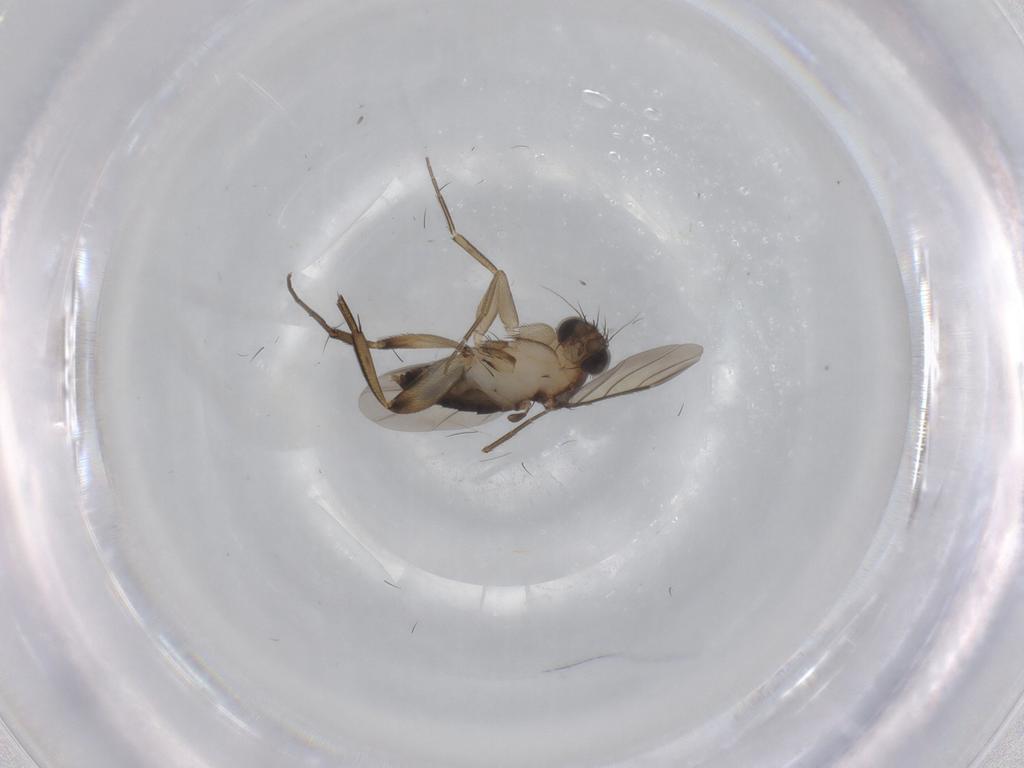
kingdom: Animalia
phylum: Arthropoda
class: Insecta
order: Diptera
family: Phoridae
